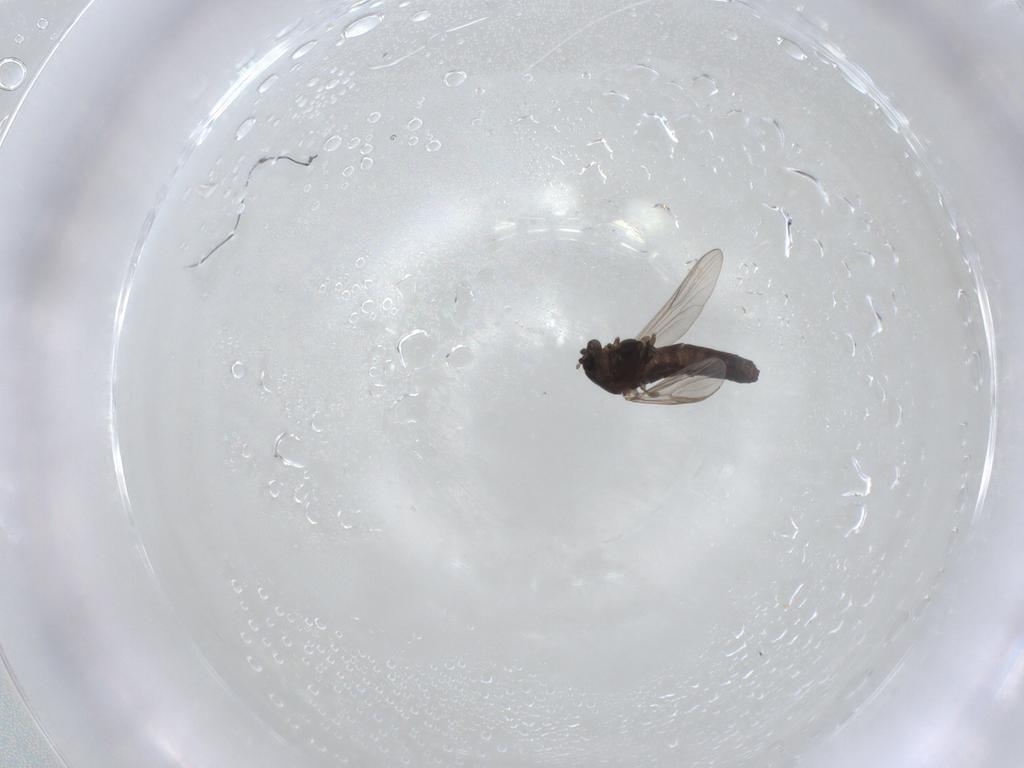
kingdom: Animalia
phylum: Arthropoda
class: Insecta
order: Diptera
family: Chironomidae
